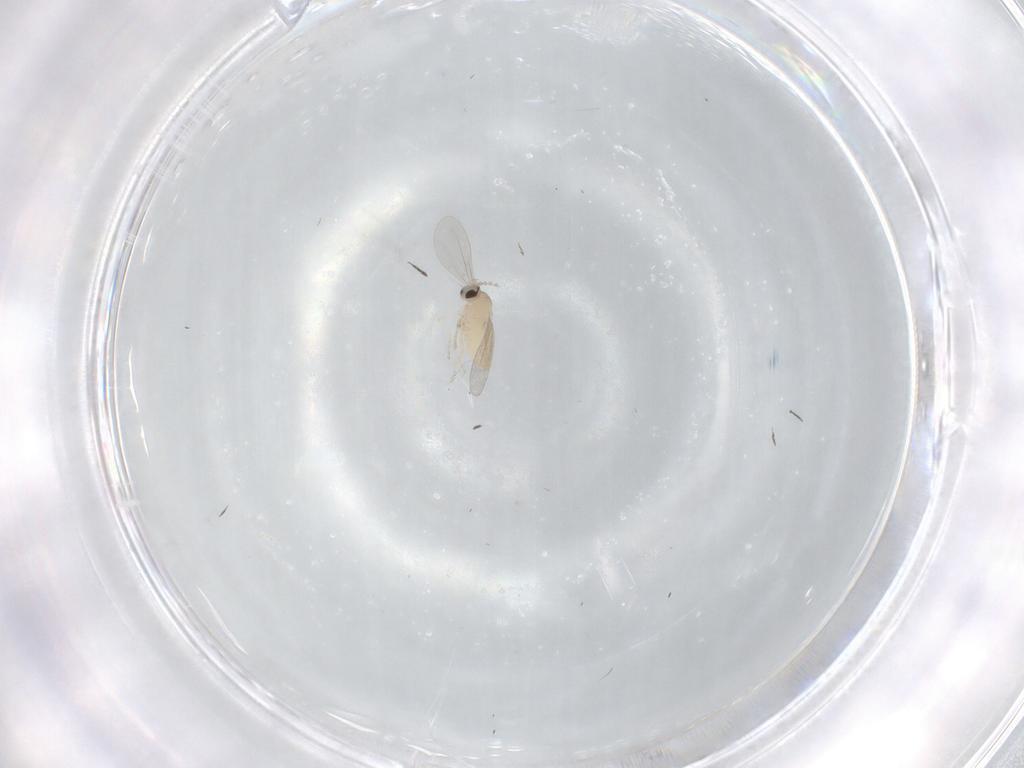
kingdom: Animalia
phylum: Arthropoda
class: Insecta
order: Diptera
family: Cecidomyiidae
